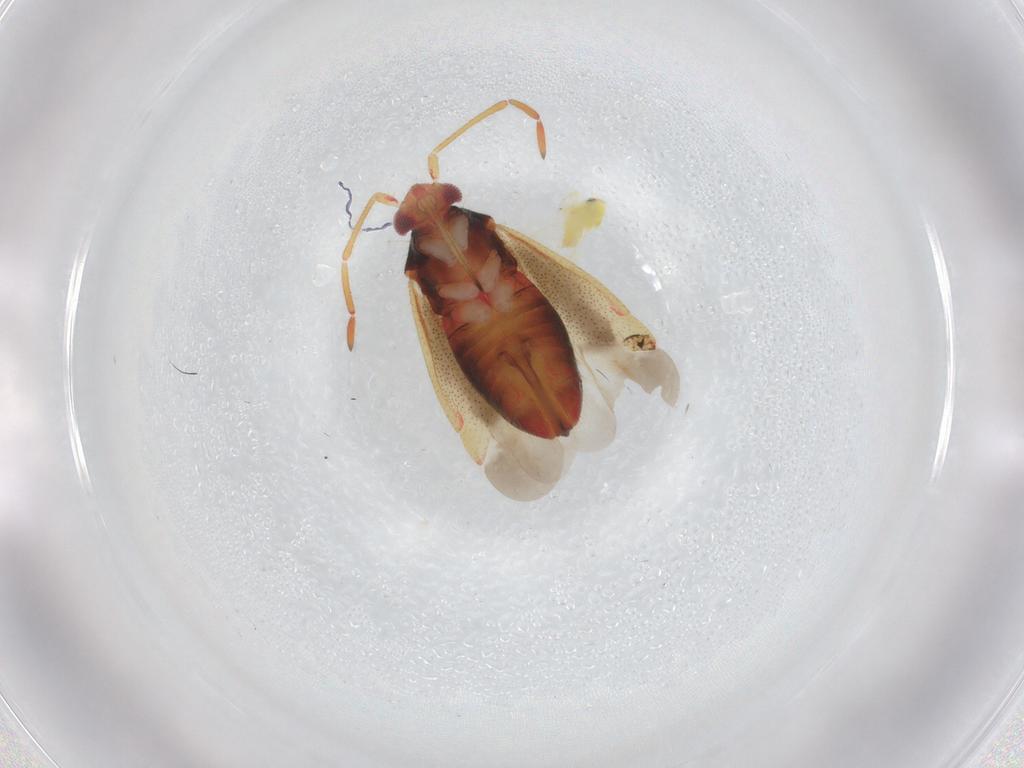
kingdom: Animalia
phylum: Arthropoda
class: Insecta
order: Hemiptera
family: Aleyrodidae
